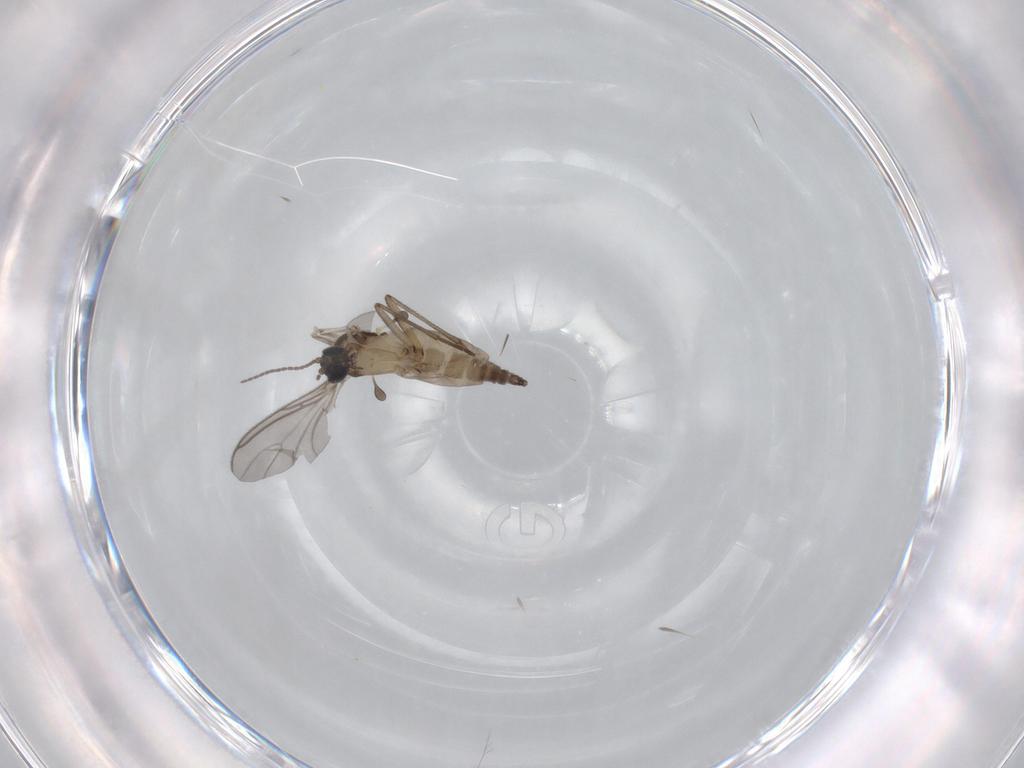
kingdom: Animalia
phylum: Arthropoda
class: Insecta
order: Diptera
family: Sciaridae
